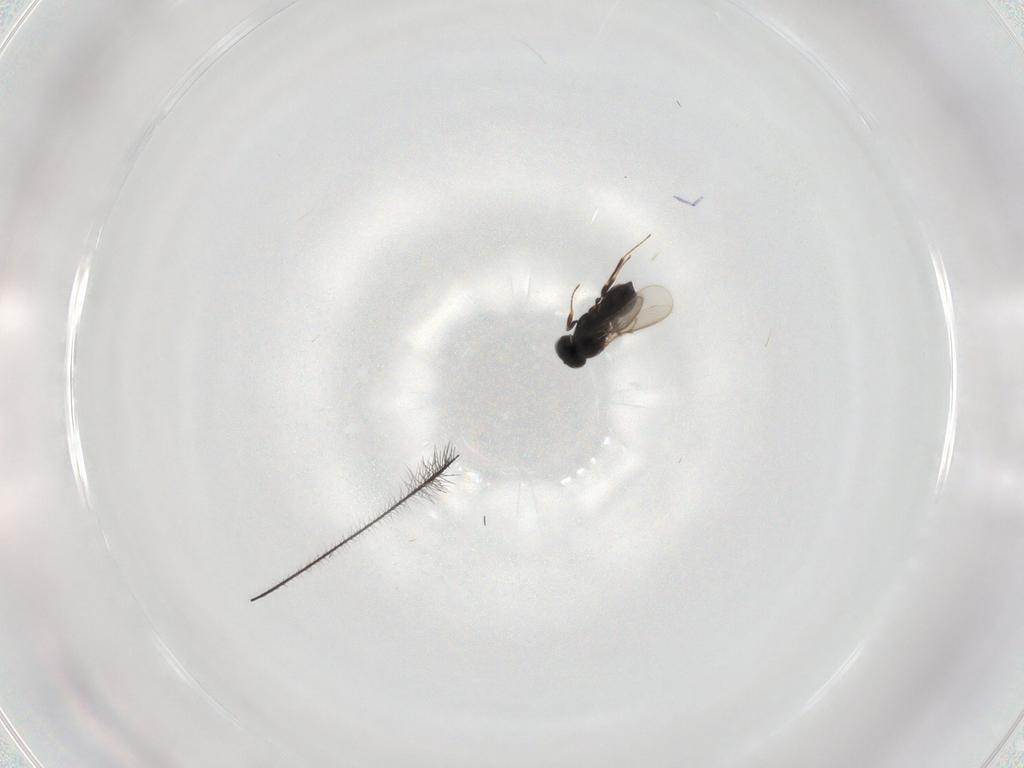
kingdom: Animalia
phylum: Arthropoda
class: Insecta
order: Hymenoptera
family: Scelionidae
